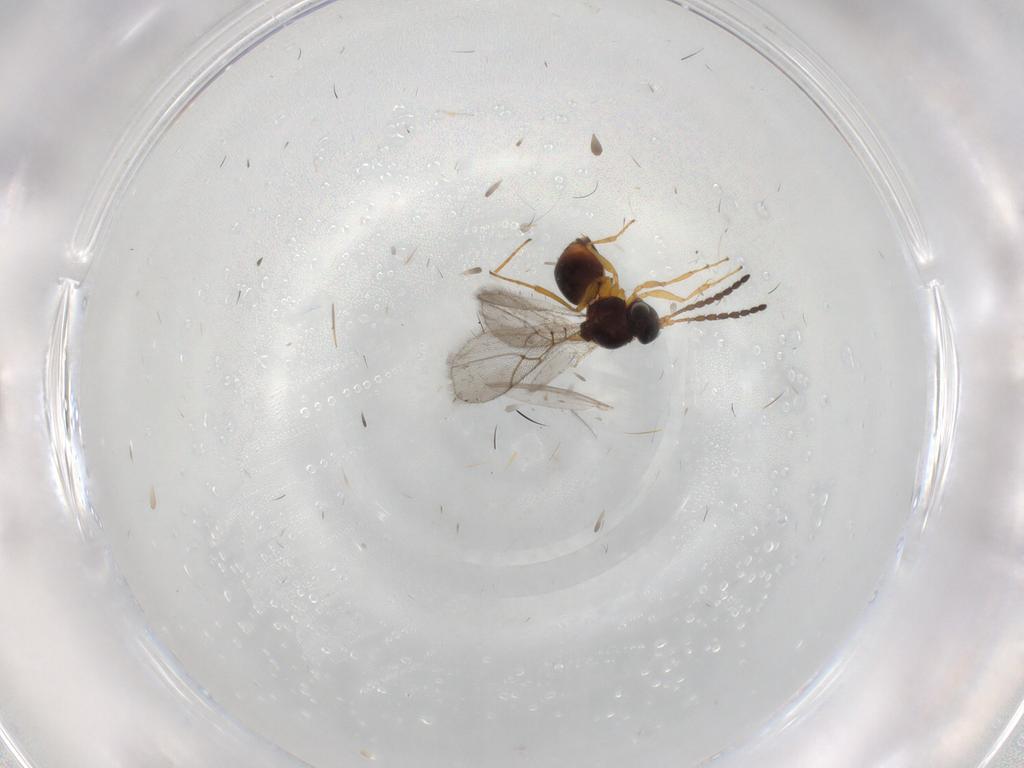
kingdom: Animalia
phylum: Arthropoda
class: Insecta
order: Hymenoptera
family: Figitidae
